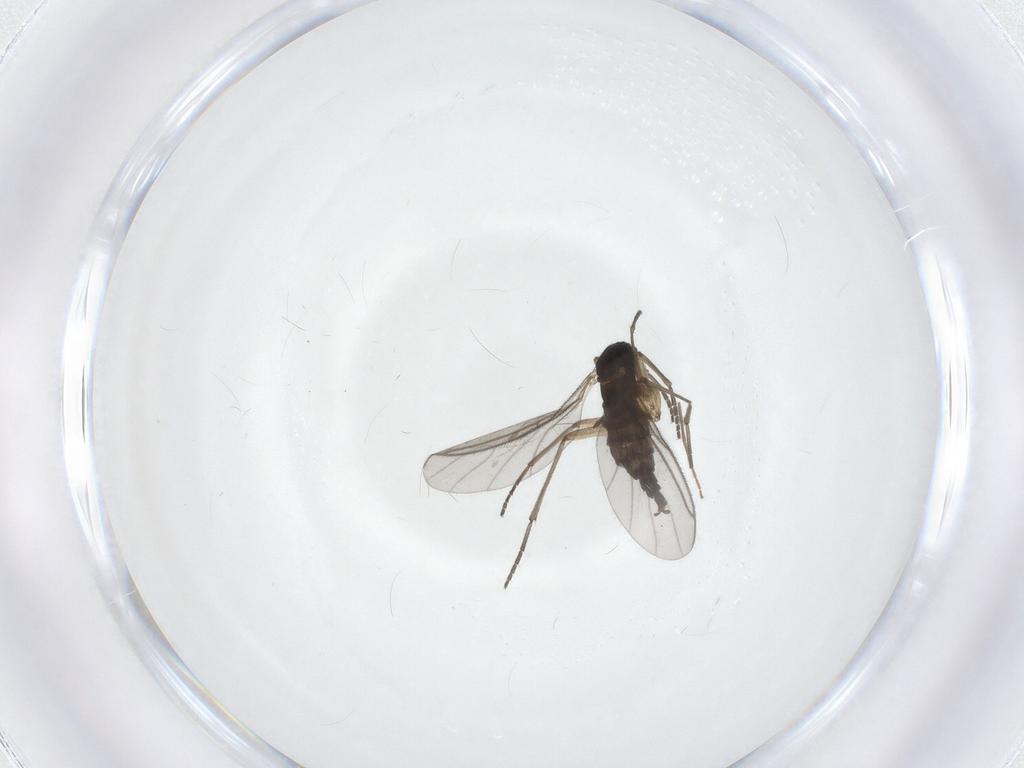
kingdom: Animalia
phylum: Arthropoda
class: Insecta
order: Diptera
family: Sciaridae
